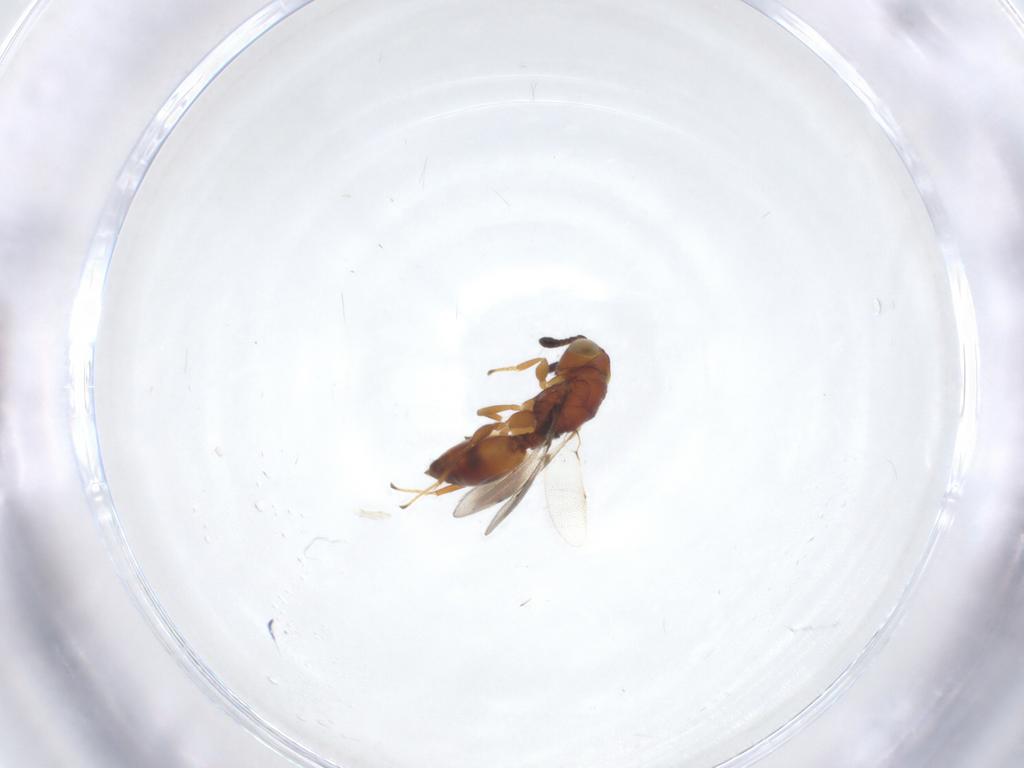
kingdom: Animalia
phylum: Arthropoda
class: Insecta
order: Hymenoptera
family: Moranilidae
